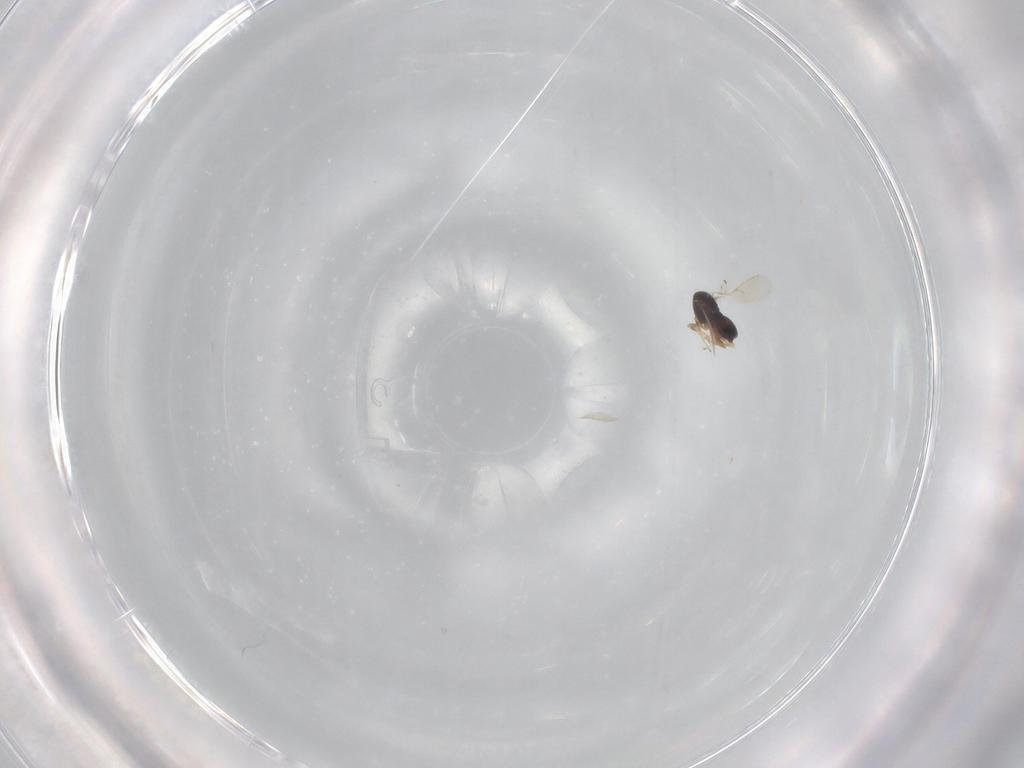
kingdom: Animalia
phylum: Arthropoda
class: Insecta
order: Hymenoptera
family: Scelionidae
